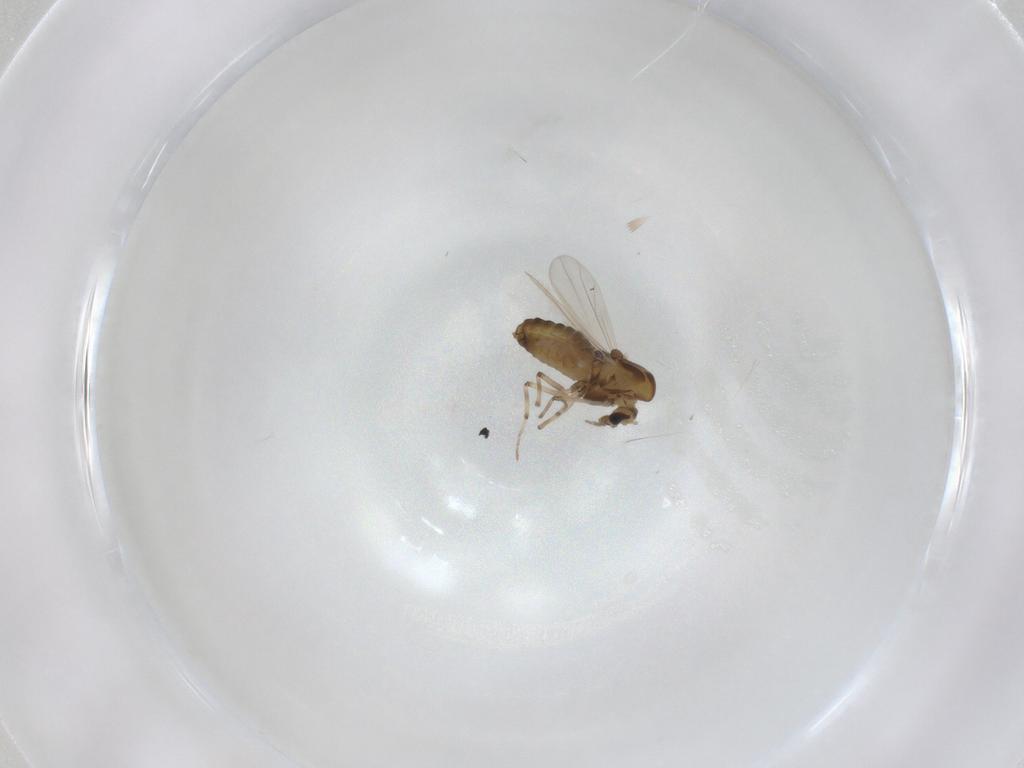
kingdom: Animalia
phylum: Arthropoda
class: Insecta
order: Diptera
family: Chironomidae
